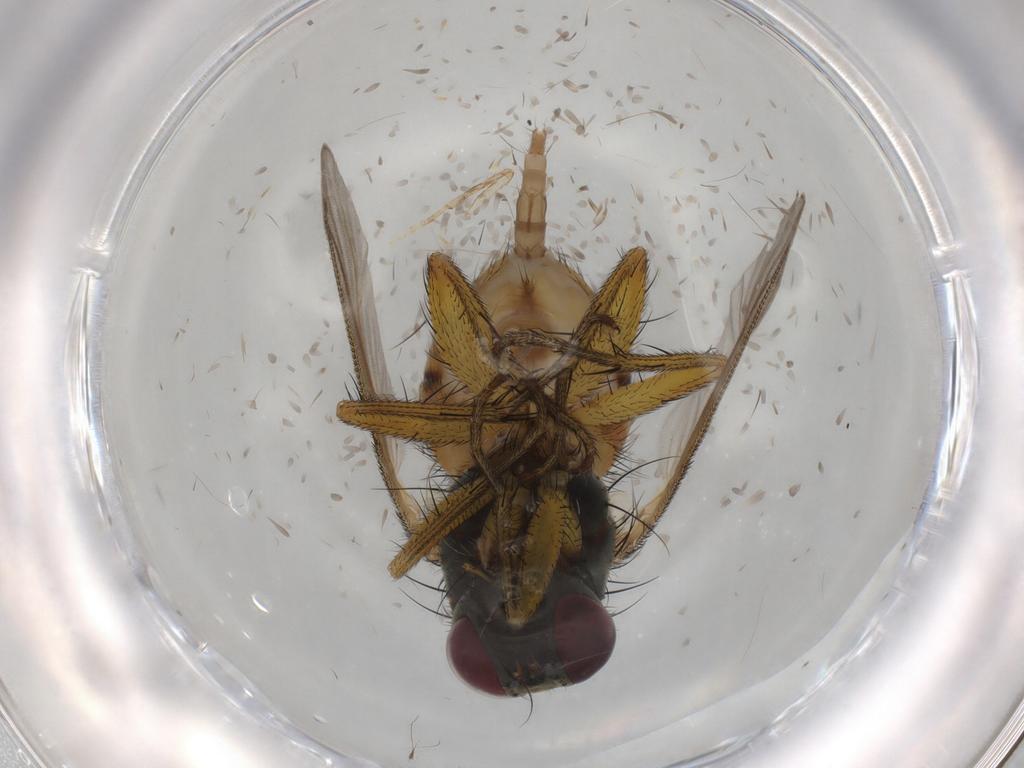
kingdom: Animalia
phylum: Arthropoda
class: Insecta
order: Diptera
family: Muscidae
